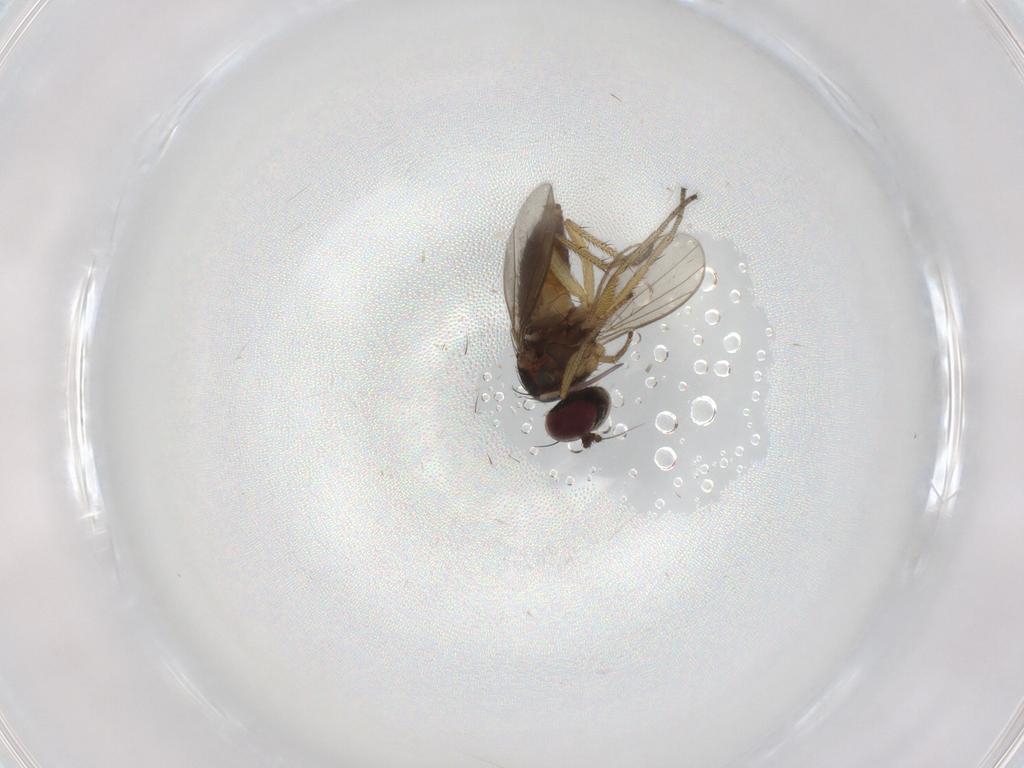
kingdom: Animalia
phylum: Arthropoda
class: Insecta
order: Diptera
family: Chironomidae
